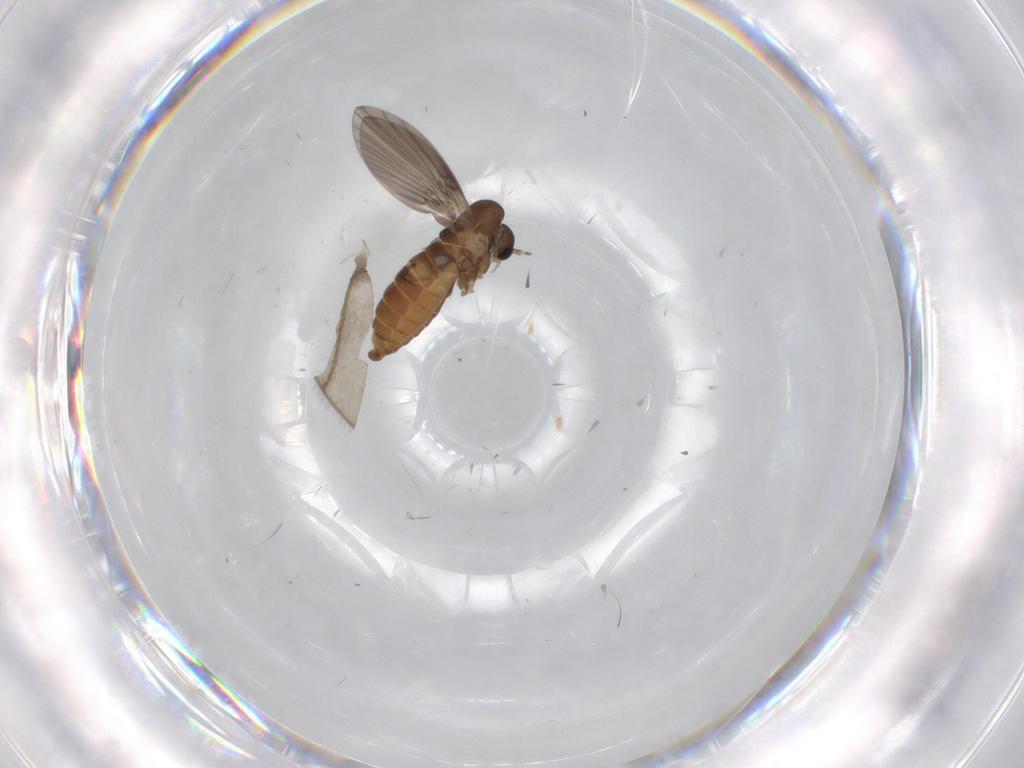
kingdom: Animalia
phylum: Arthropoda
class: Insecta
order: Diptera
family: Psychodidae
